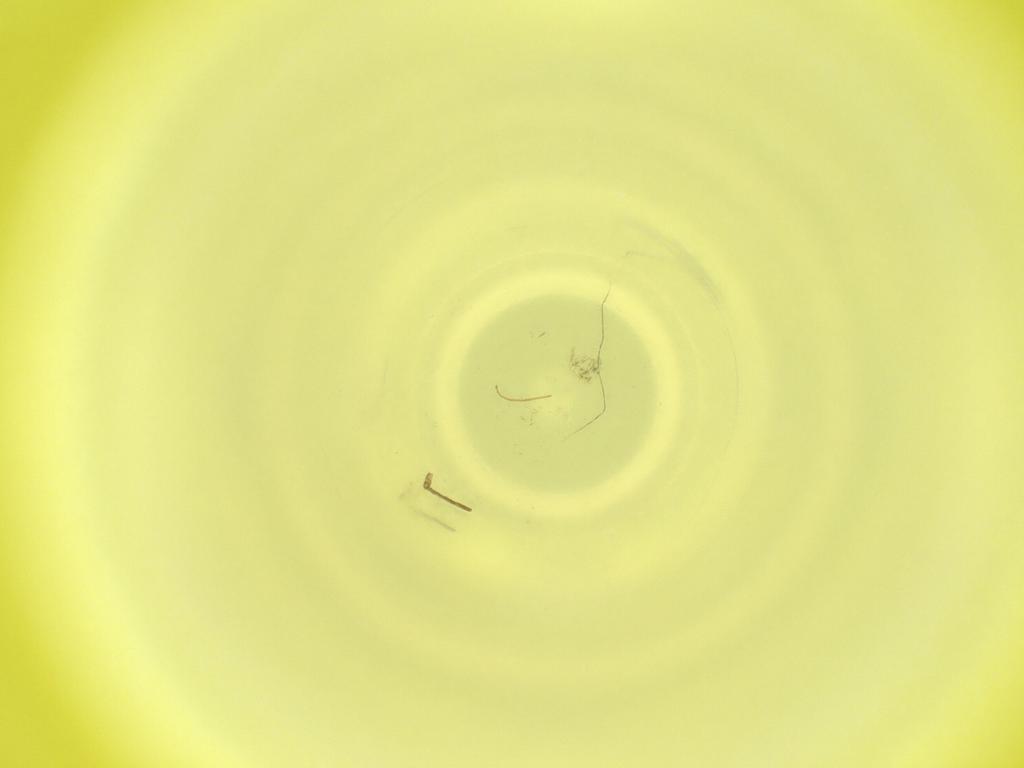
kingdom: Animalia
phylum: Arthropoda
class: Insecta
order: Diptera
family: Cecidomyiidae
